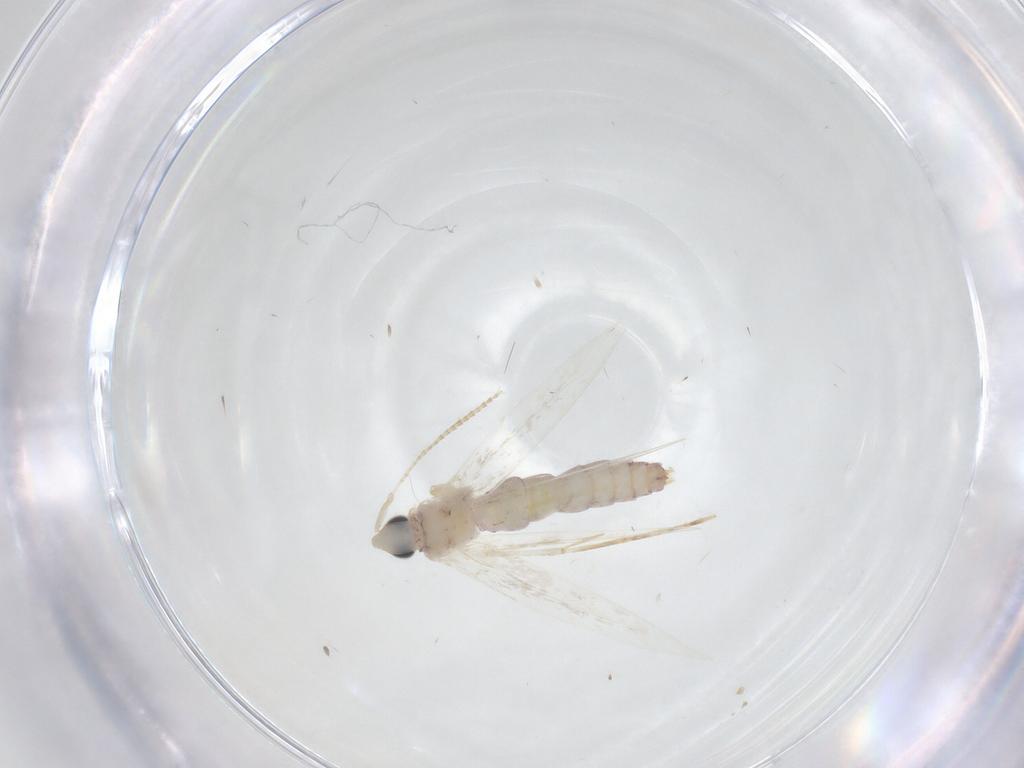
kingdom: Animalia
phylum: Arthropoda
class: Insecta
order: Lepidoptera
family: Tineidae
